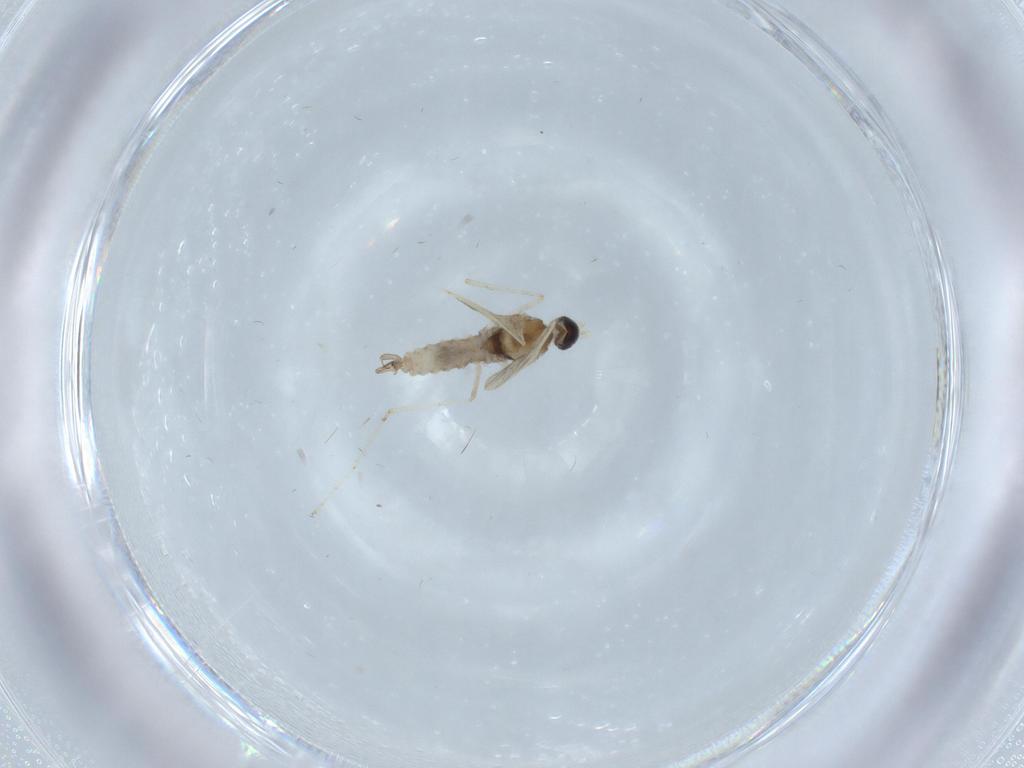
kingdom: Animalia
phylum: Arthropoda
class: Insecta
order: Diptera
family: Cecidomyiidae
